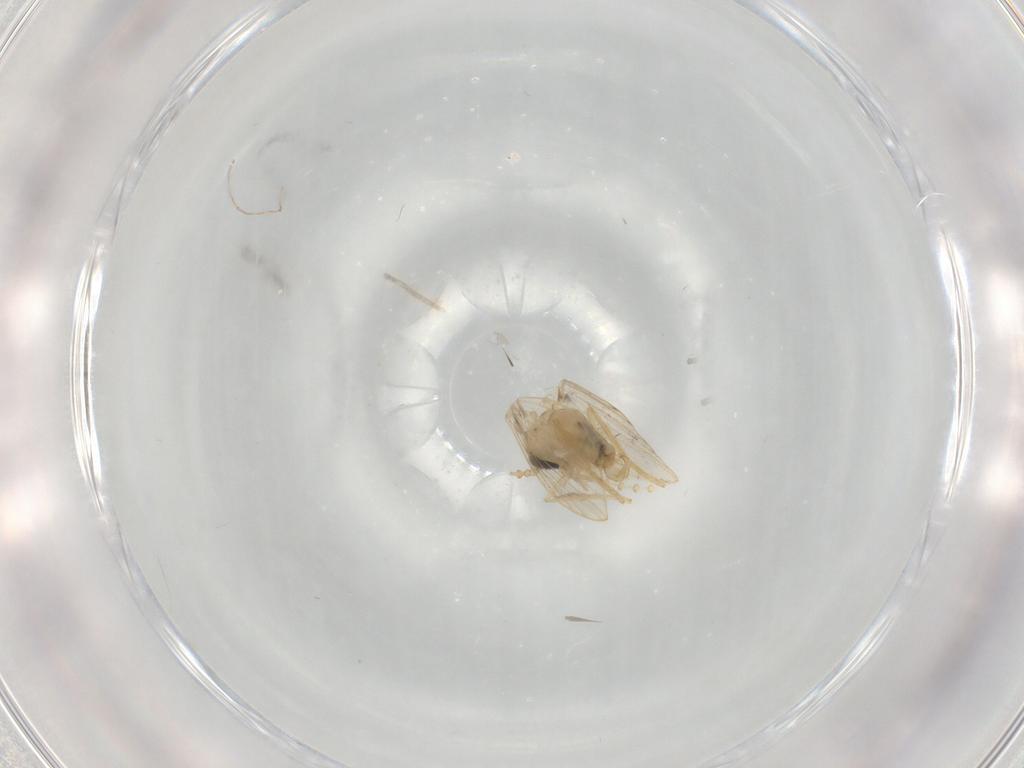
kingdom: Animalia
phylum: Arthropoda
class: Insecta
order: Diptera
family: Psychodidae
